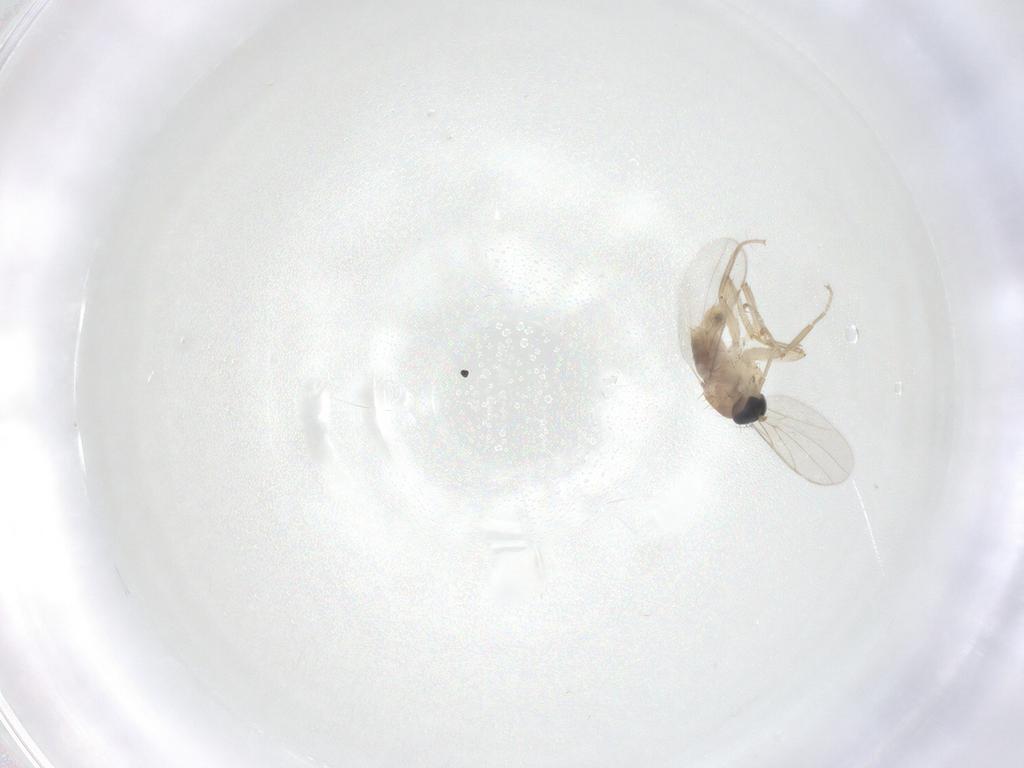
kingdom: Animalia
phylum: Arthropoda
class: Insecta
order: Diptera
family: Hybotidae
